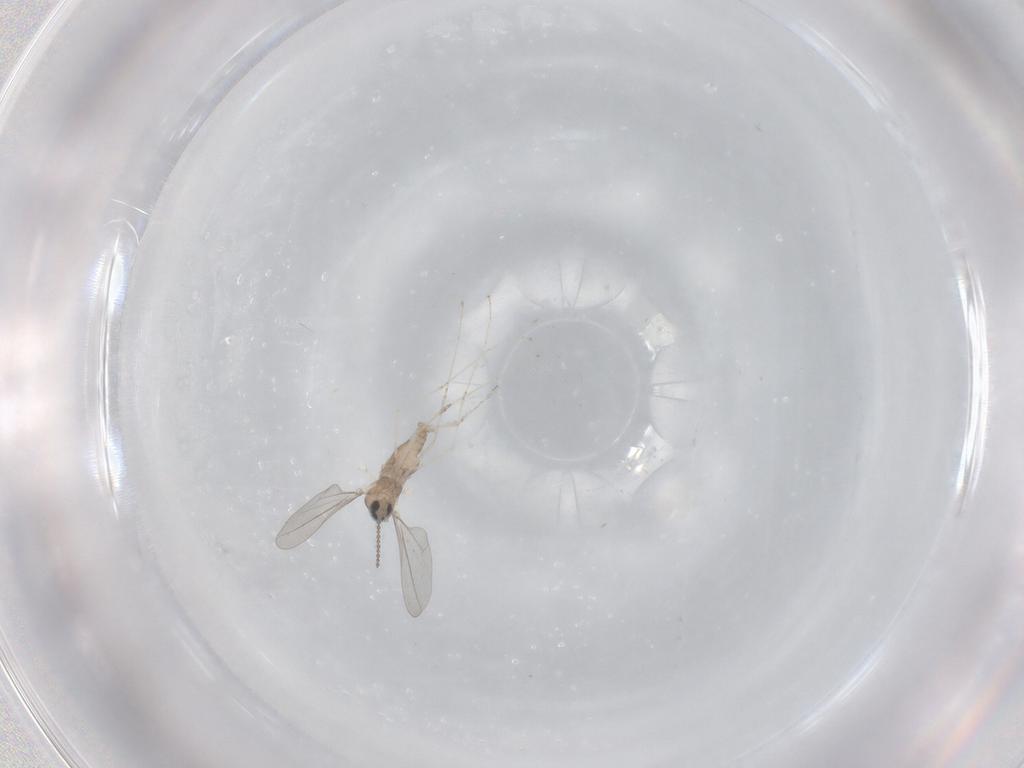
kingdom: Animalia
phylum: Arthropoda
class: Insecta
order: Diptera
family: Cecidomyiidae
